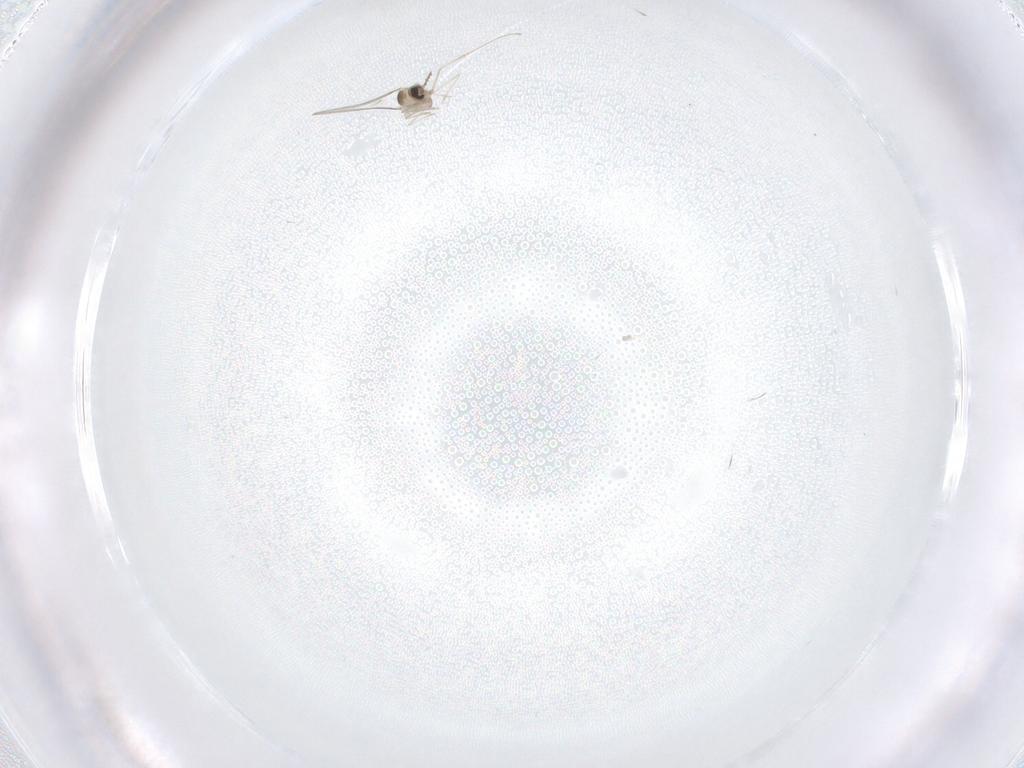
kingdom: Animalia
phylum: Arthropoda
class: Insecta
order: Diptera
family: Cecidomyiidae
